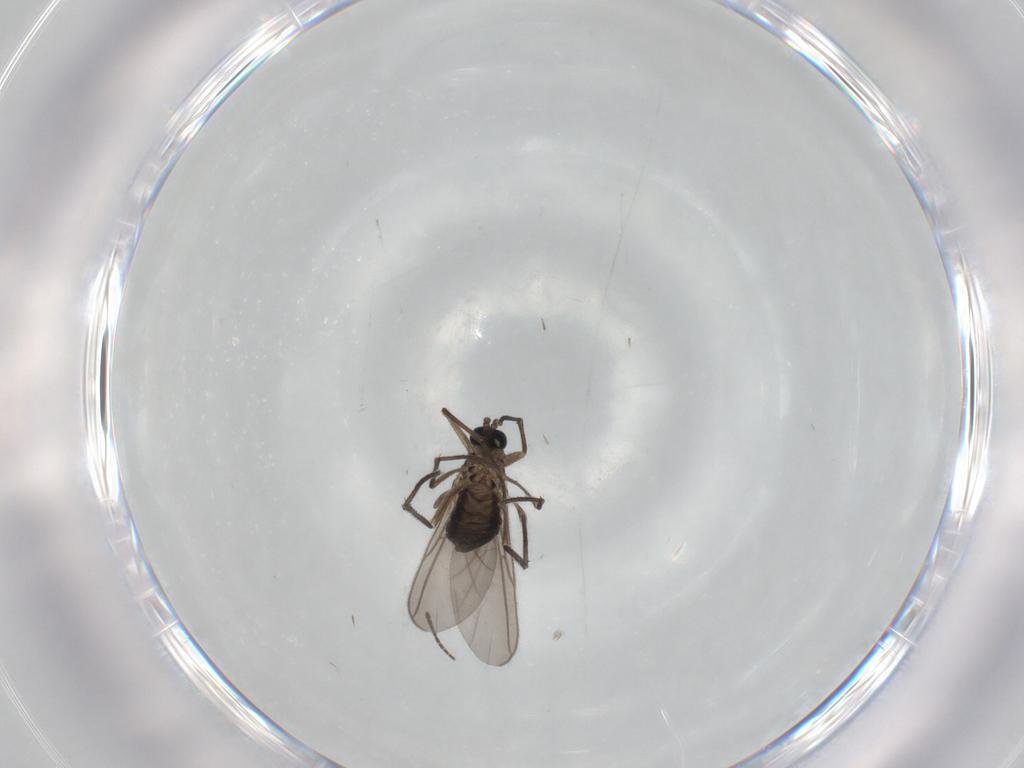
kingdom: Animalia
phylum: Arthropoda
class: Insecta
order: Diptera
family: Sciaridae
